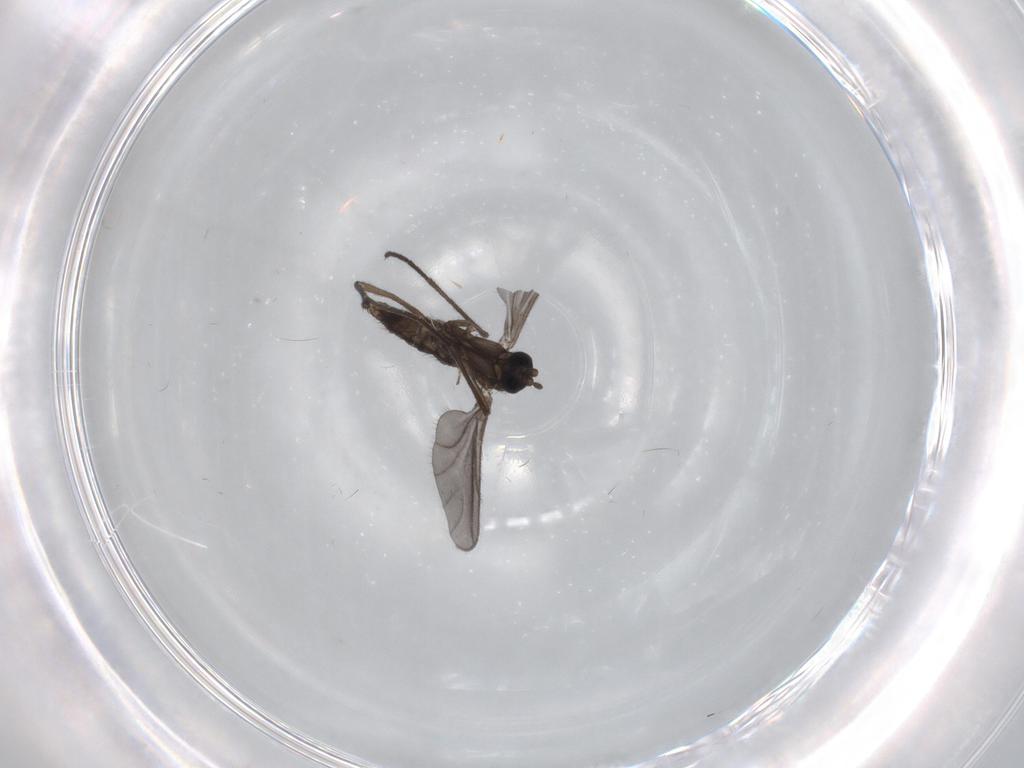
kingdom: Animalia
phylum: Arthropoda
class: Insecta
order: Diptera
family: Sciaridae
